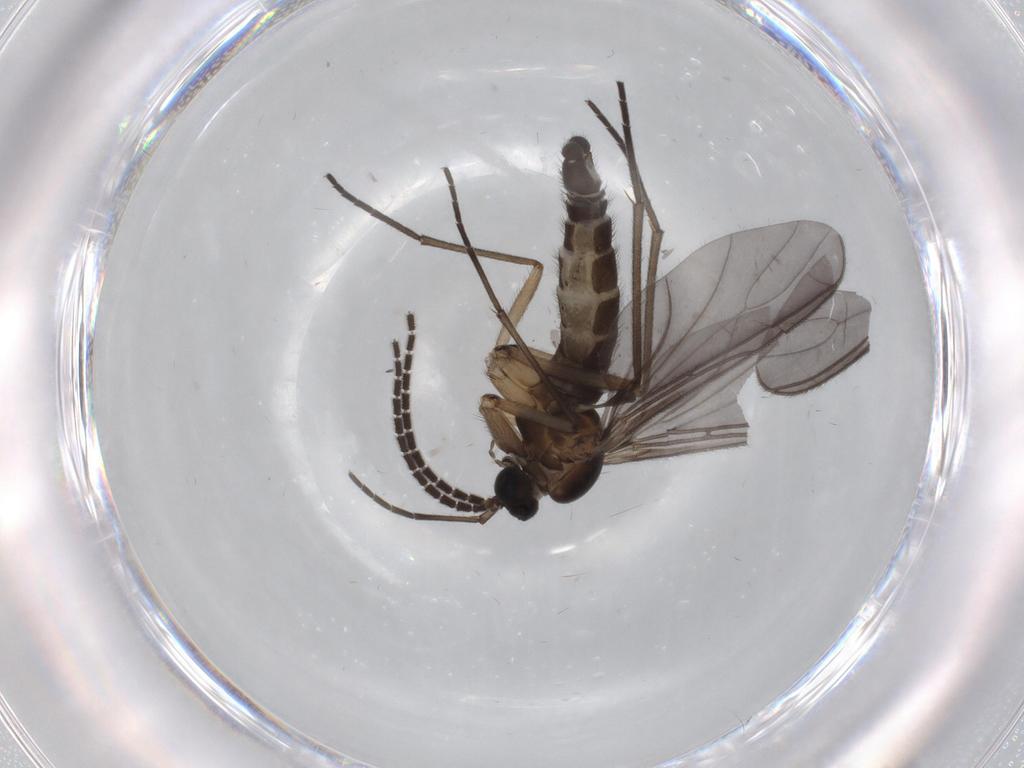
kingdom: Animalia
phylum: Arthropoda
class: Insecta
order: Diptera
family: Sciaridae
